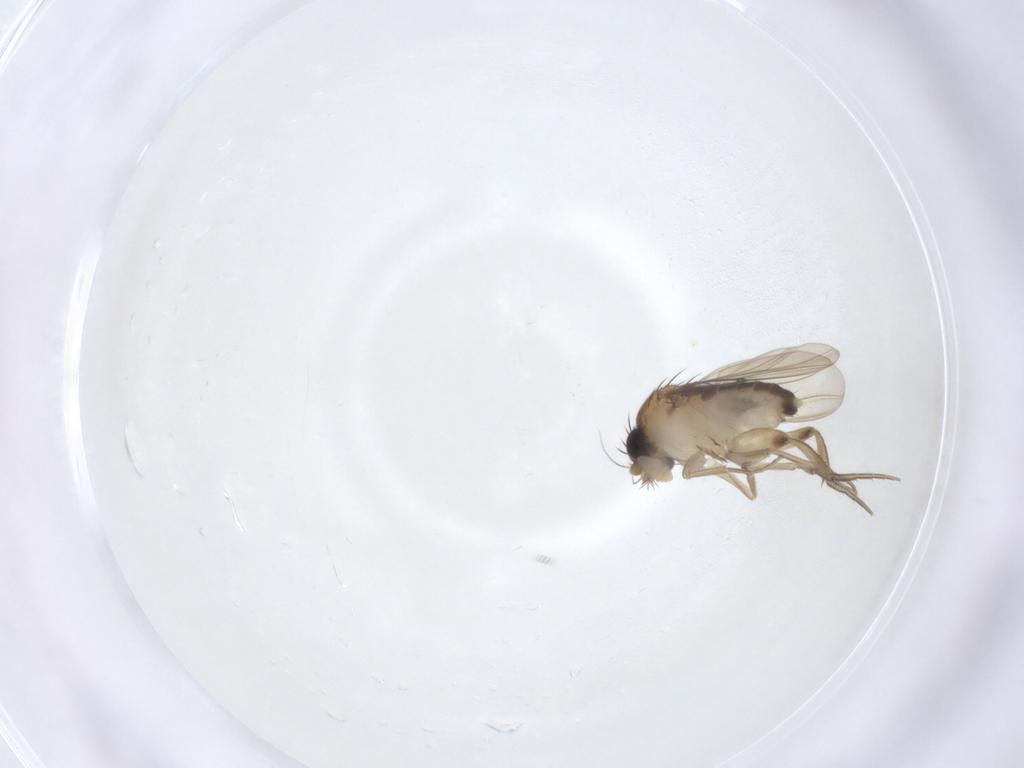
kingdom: Animalia
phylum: Arthropoda
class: Insecta
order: Diptera
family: Phoridae
